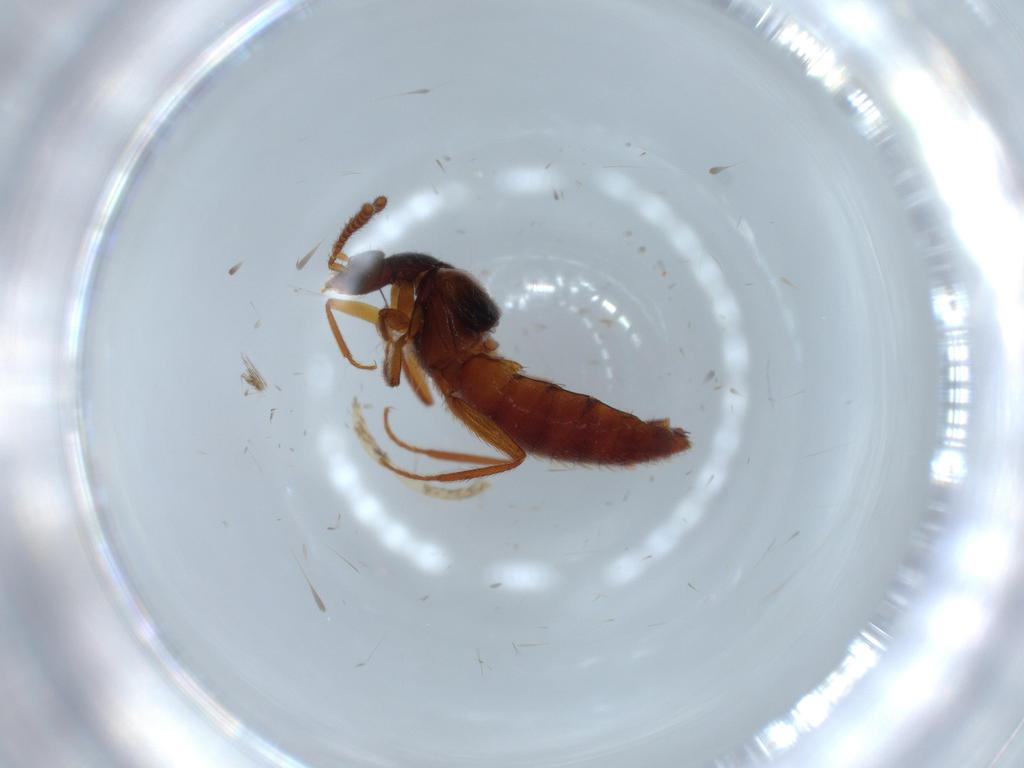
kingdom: Animalia
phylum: Arthropoda
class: Insecta
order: Coleoptera
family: Staphylinidae
